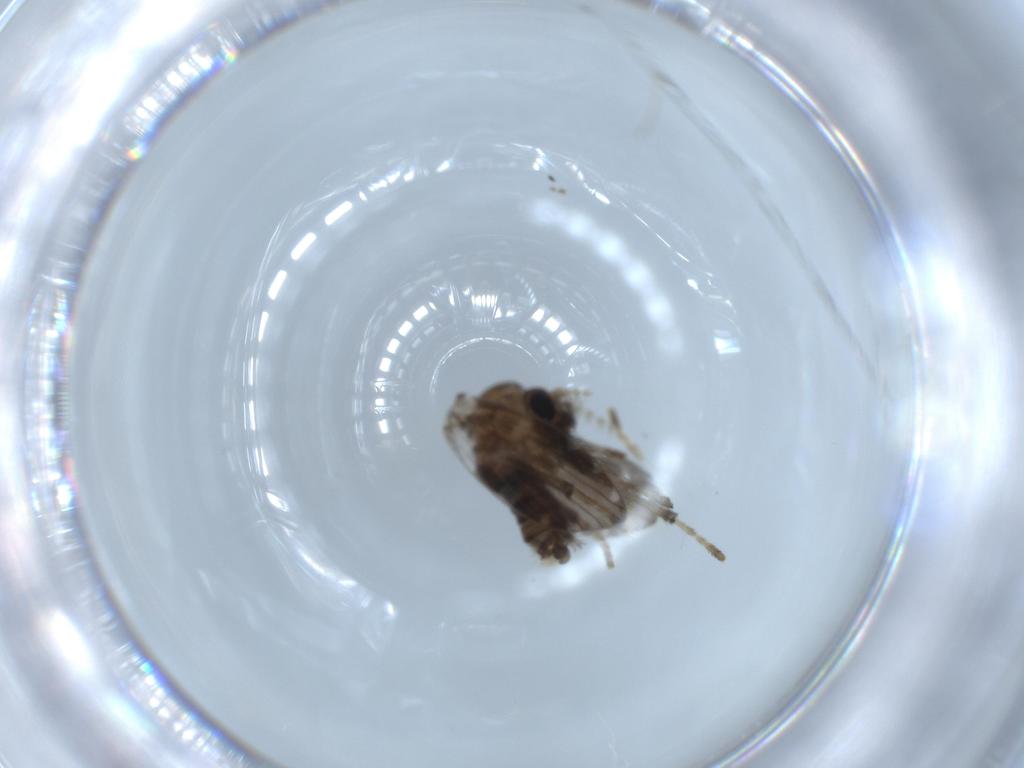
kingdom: Animalia
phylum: Arthropoda
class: Insecta
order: Diptera
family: Psychodidae
